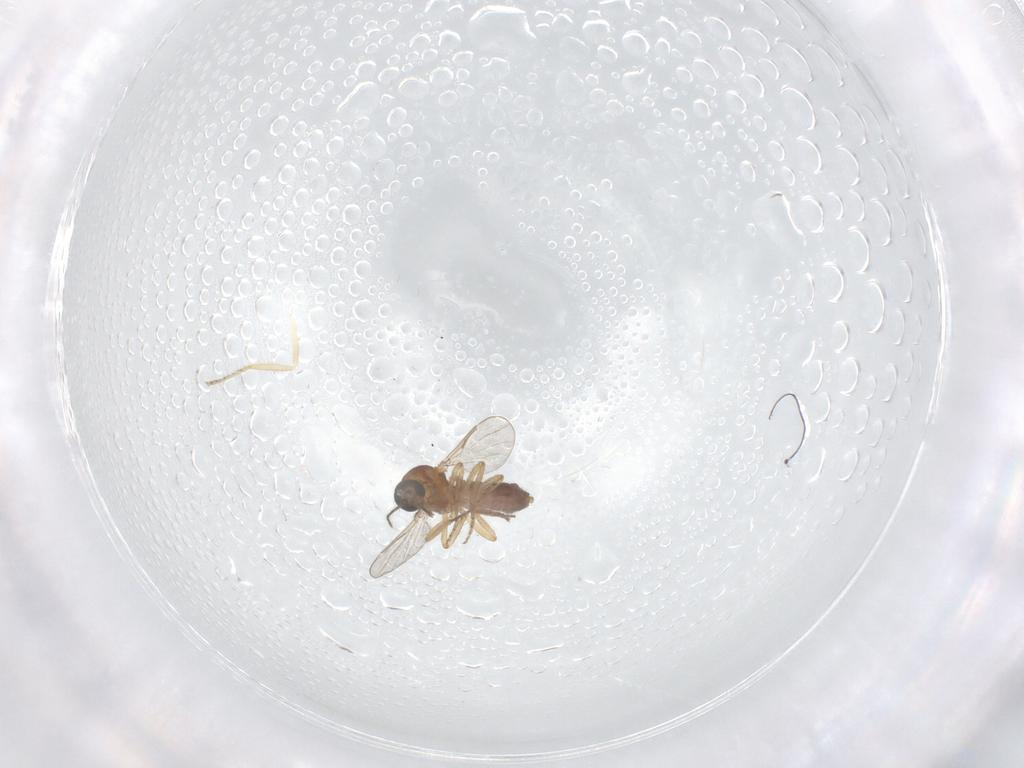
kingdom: Animalia
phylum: Arthropoda
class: Insecta
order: Diptera
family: Ceratopogonidae
